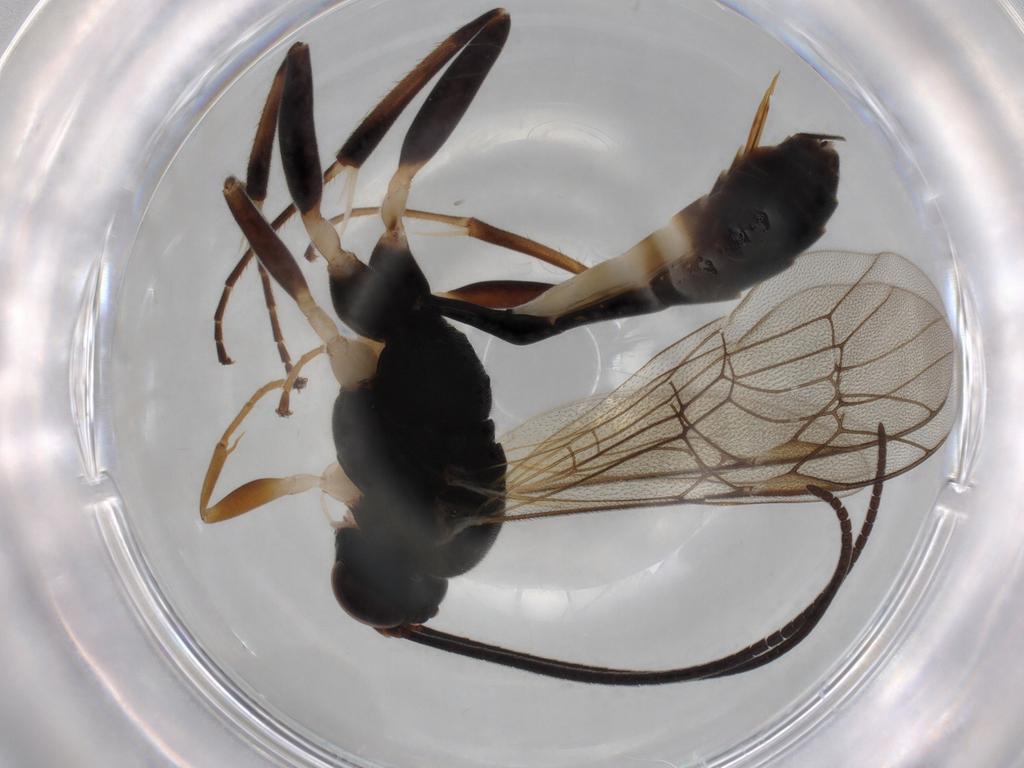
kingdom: Animalia
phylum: Arthropoda
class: Insecta
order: Hymenoptera
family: Ichneumonidae
